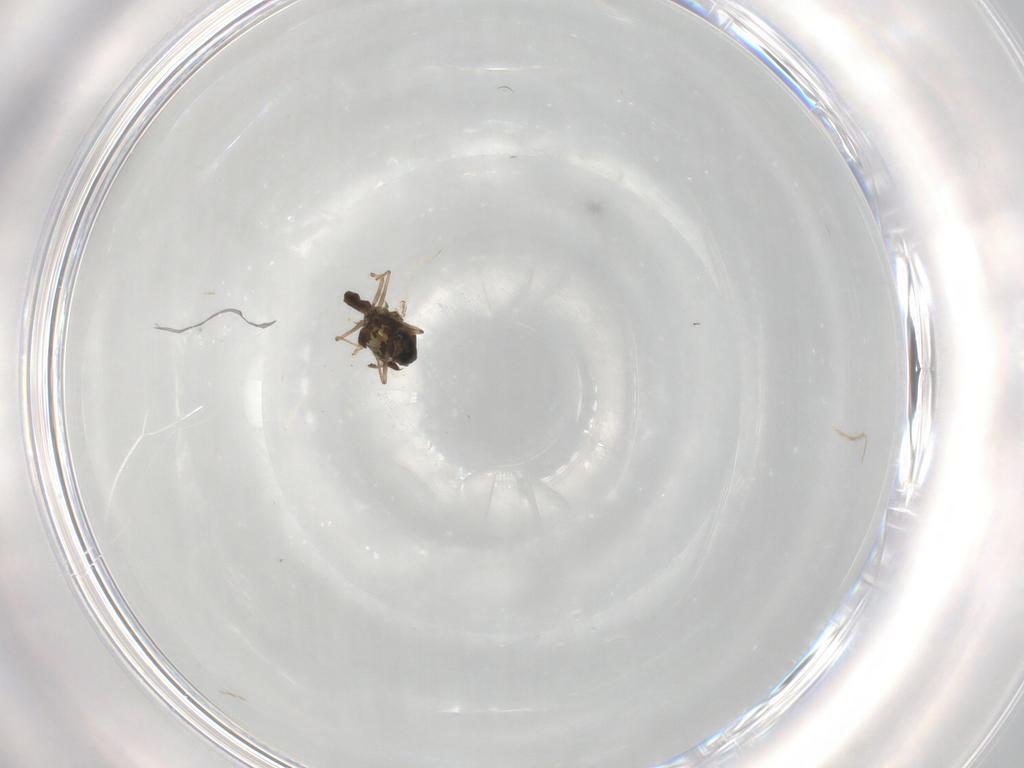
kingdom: Animalia
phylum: Arthropoda
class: Insecta
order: Diptera
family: Chironomidae
